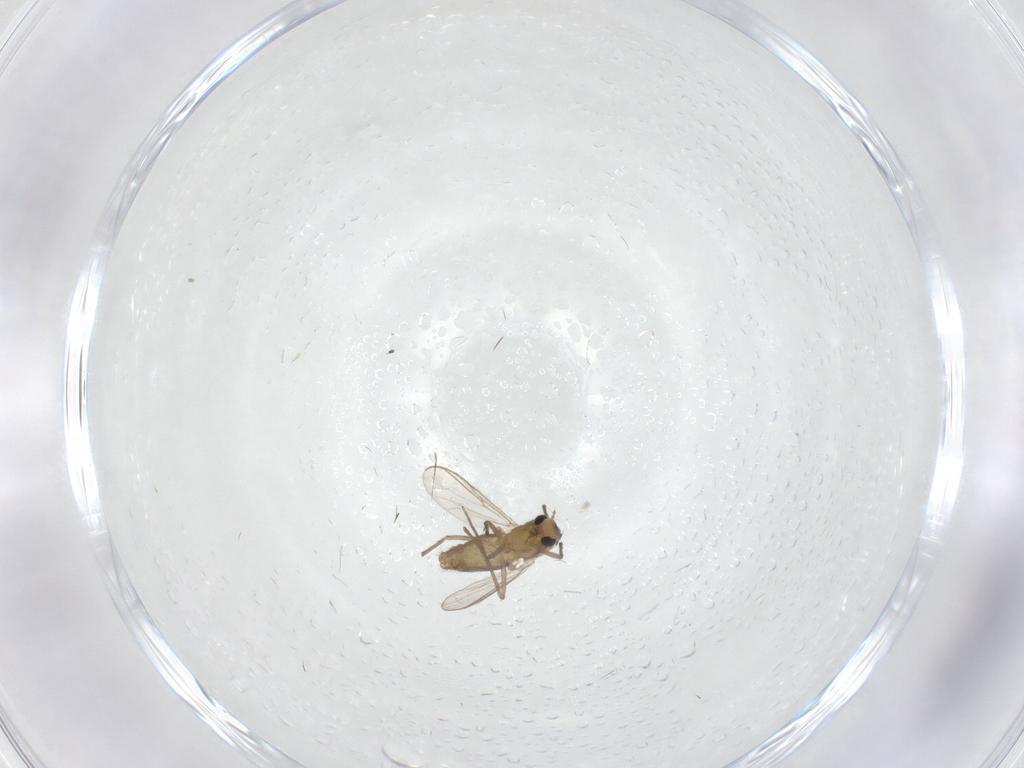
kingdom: Animalia
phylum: Arthropoda
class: Insecta
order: Diptera
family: Chironomidae
